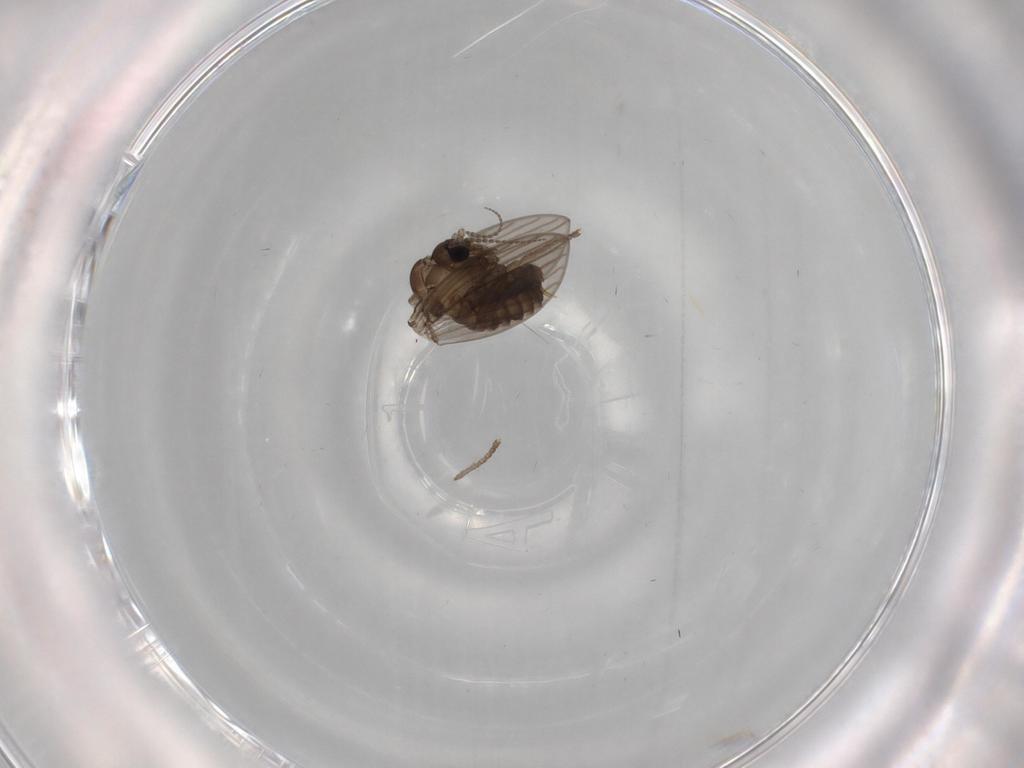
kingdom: Animalia
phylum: Arthropoda
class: Insecta
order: Diptera
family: Psychodidae
